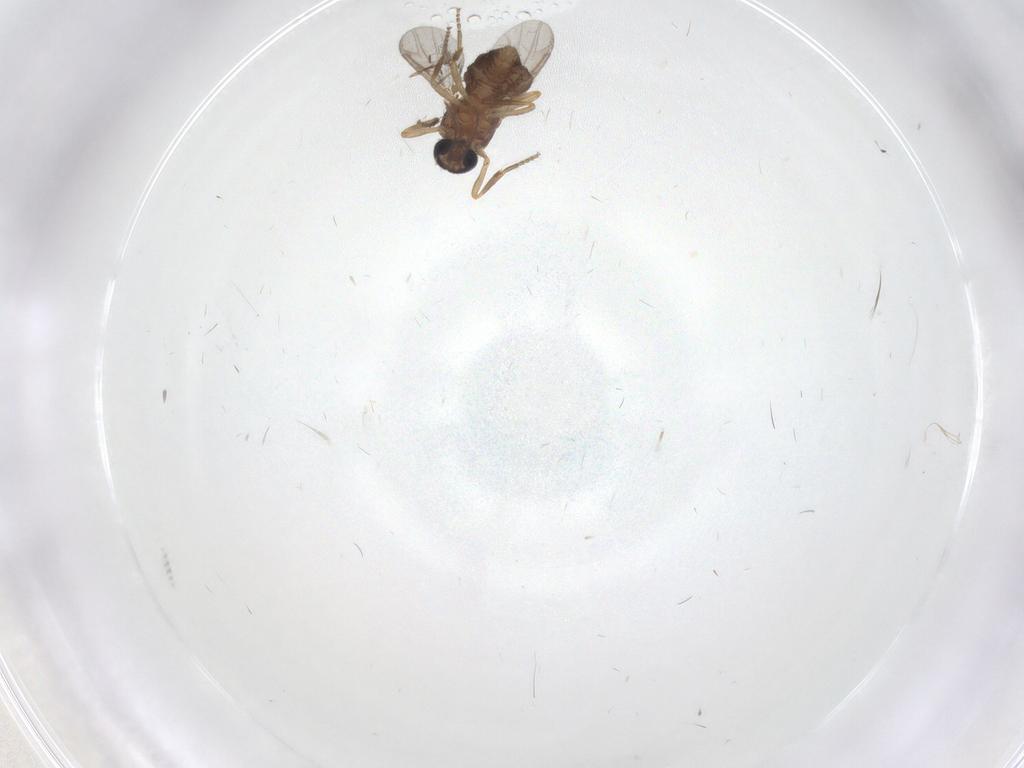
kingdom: Animalia
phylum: Arthropoda
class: Insecta
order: Diptera
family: Ceratopogonidae
